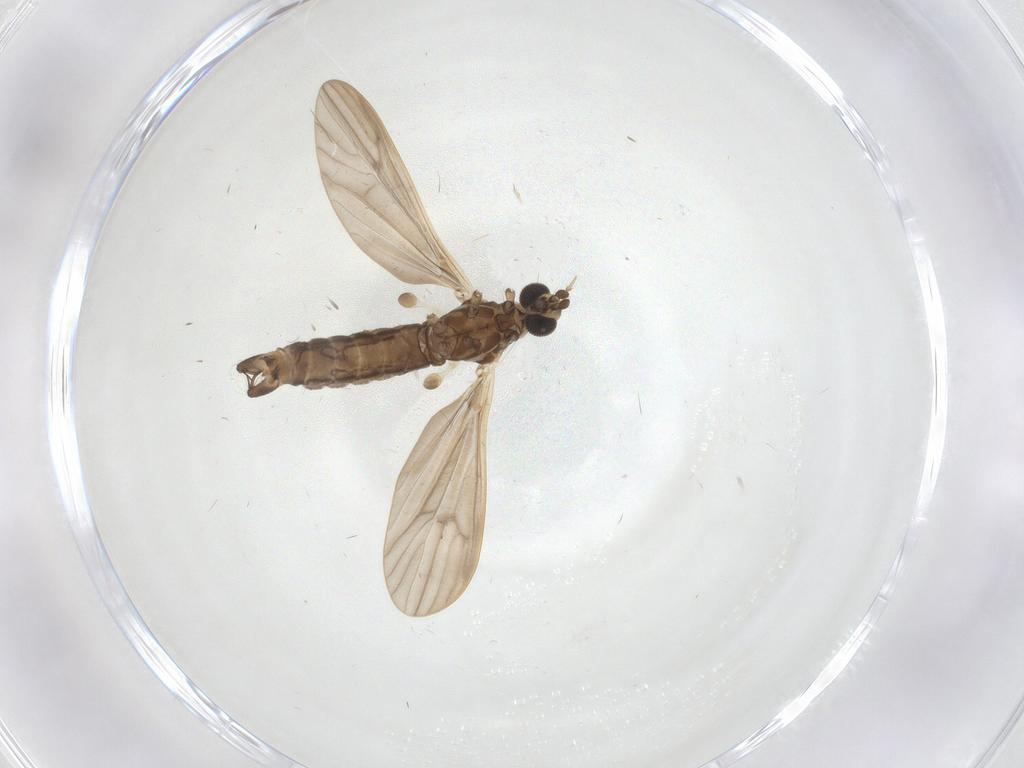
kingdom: Animalia
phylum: Arthropoda
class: Insecta
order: Diptera
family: Limoniidae
